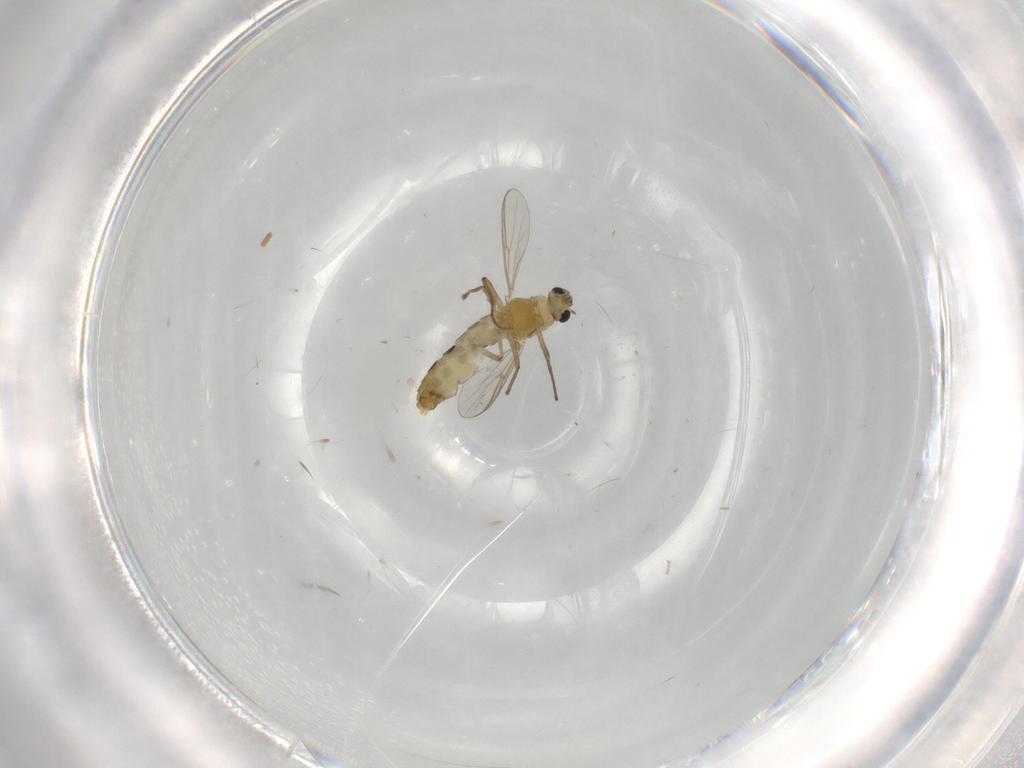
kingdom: Animalia
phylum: Arthropoda
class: Insecta
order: Diptera
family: Chironomidae
